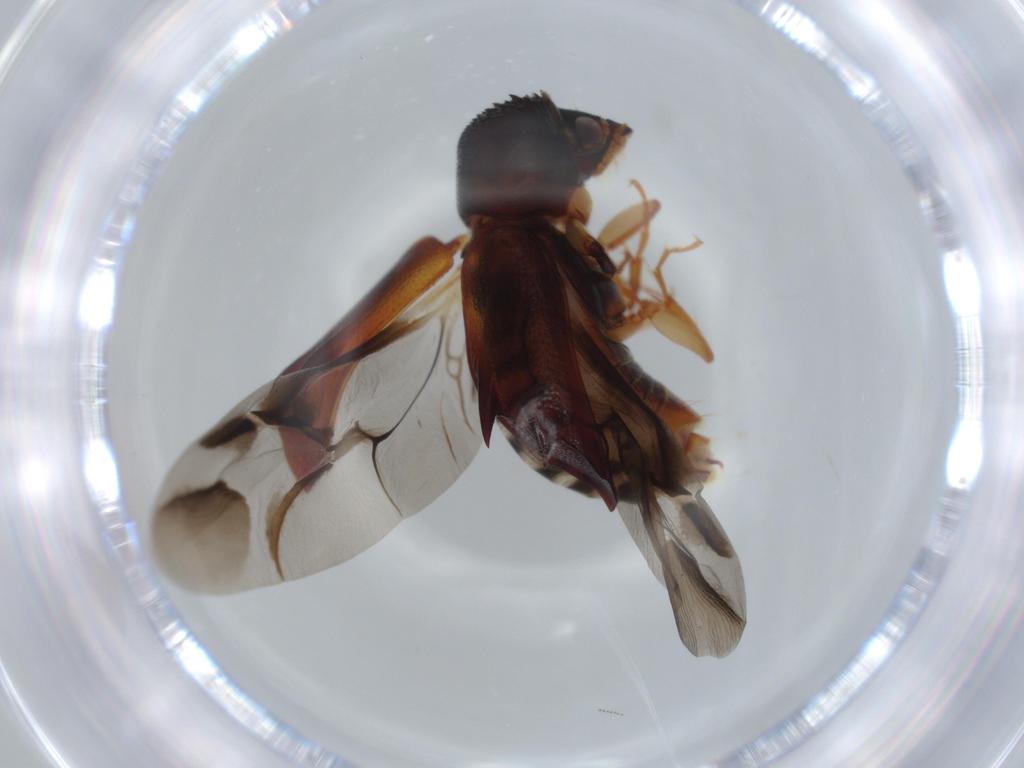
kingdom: Animalia
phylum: Arthropoda
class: Insecta
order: Coleoptera
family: Bostrichidae
